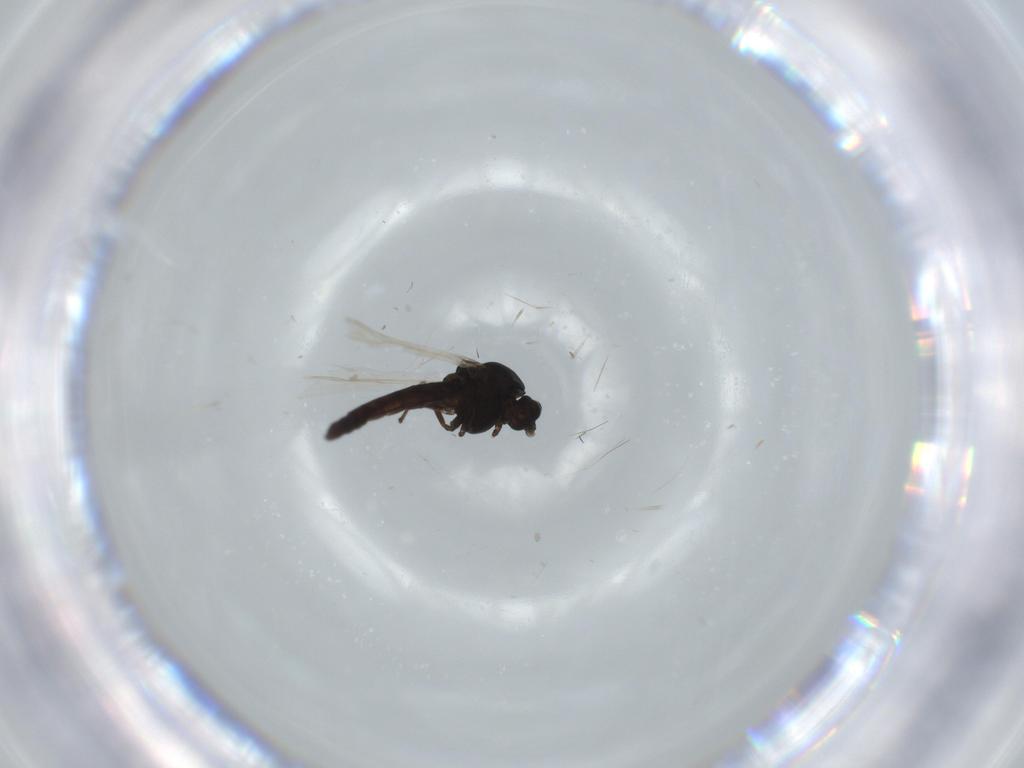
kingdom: Animalia
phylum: Arthropoda
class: Insecta
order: Diptera
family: Chironomidae
